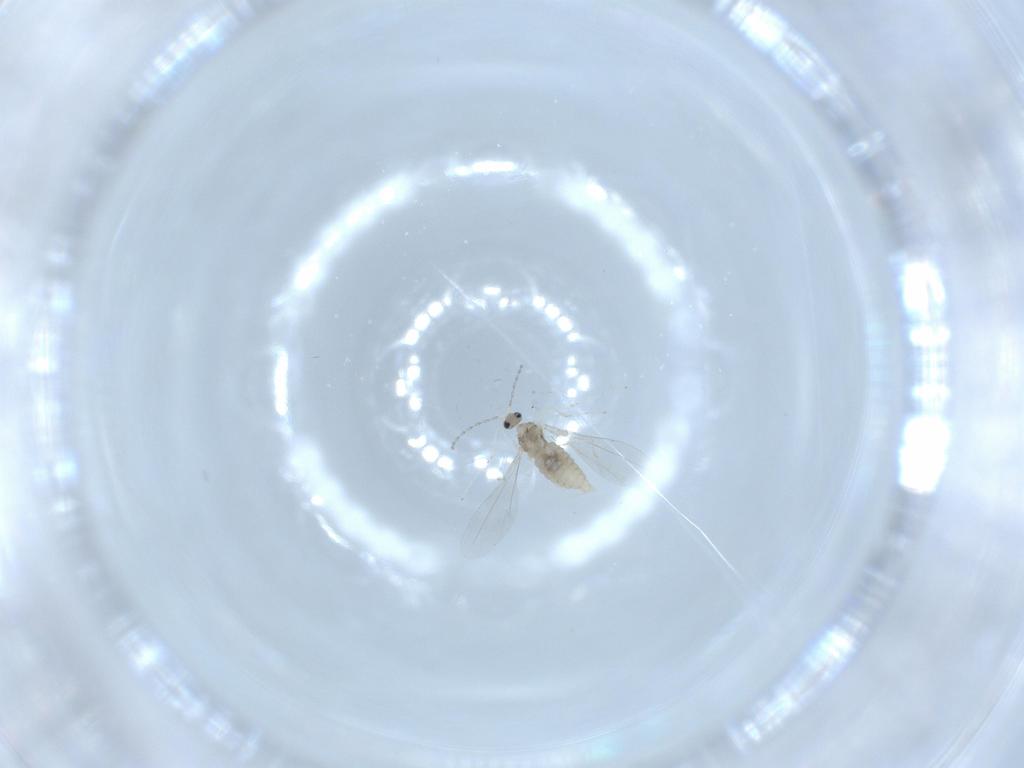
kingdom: Animalia
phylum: Arthropoda
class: Insecta
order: Diptera
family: Cecidomyiidae
